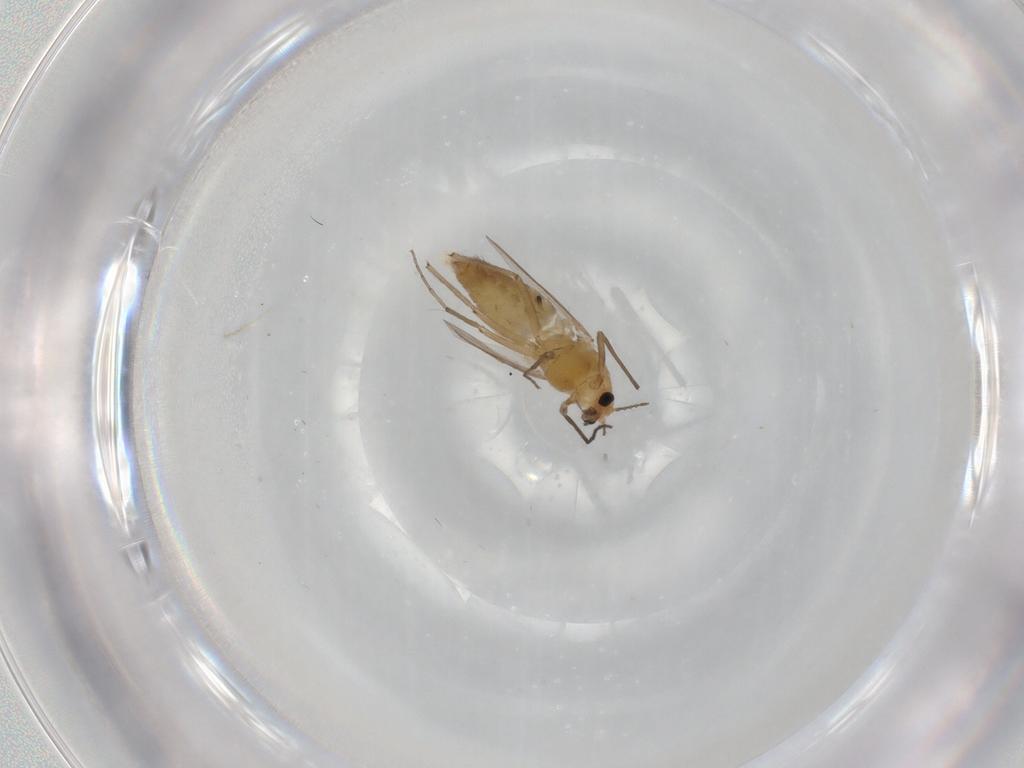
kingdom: Animalia
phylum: Arthropoda
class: Insecta
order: Diptera
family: Chironomidae
